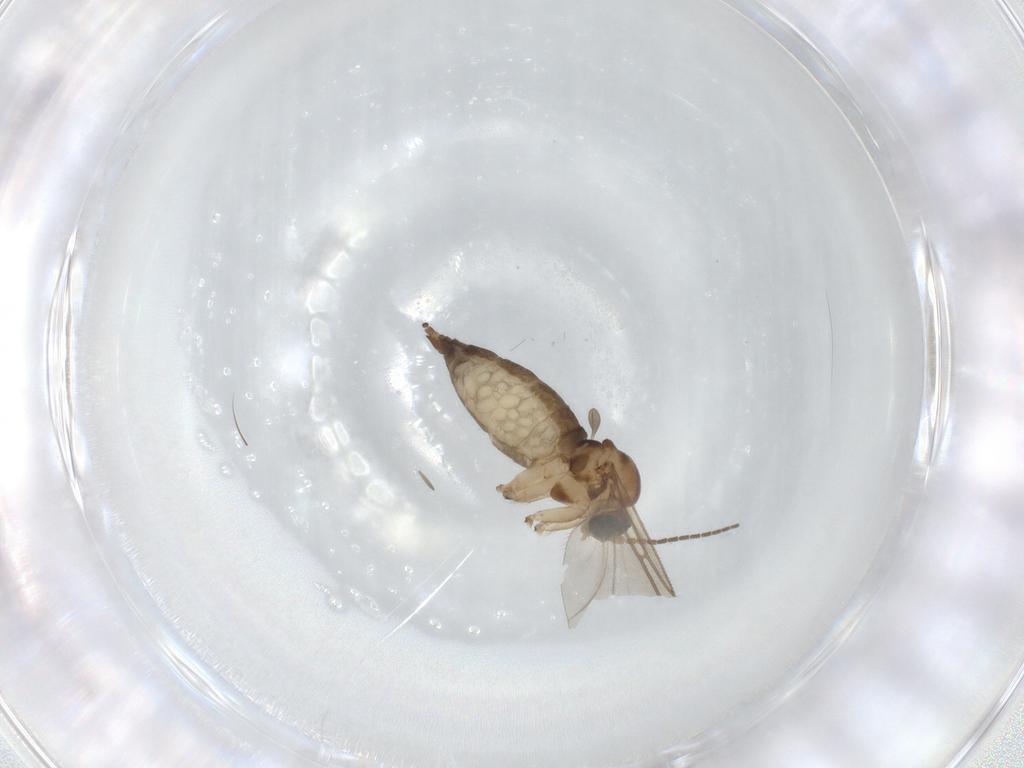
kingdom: Animalia
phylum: Arthropoda
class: Insecta
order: Diptera
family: Sciaridae
